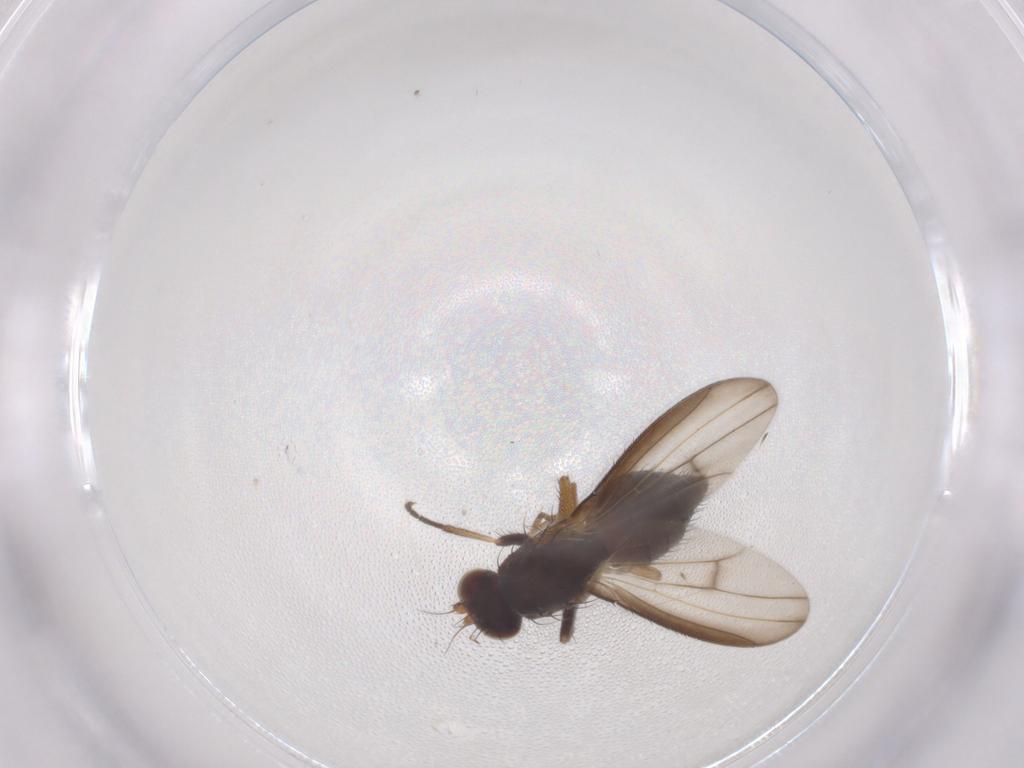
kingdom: Animalia
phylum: Arthropoda
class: Insecta
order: Diptera
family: Heleomyzidae
